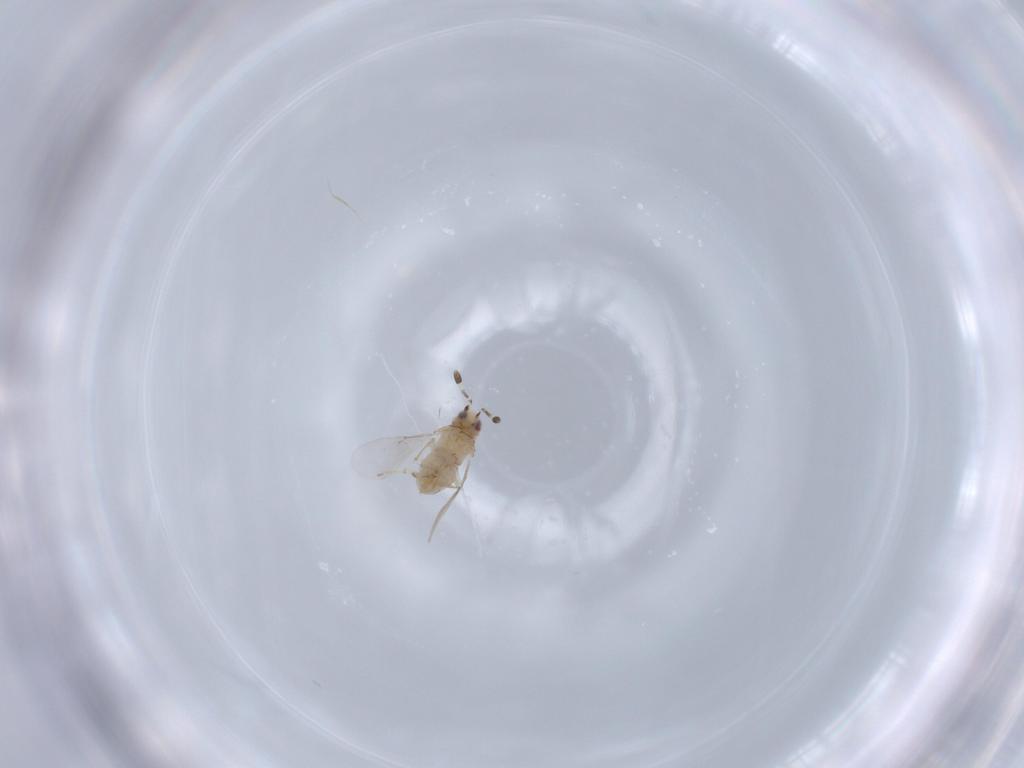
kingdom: Animalia
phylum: Arthropoda
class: Insecta
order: Hymenoptera
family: Encyrtidae
